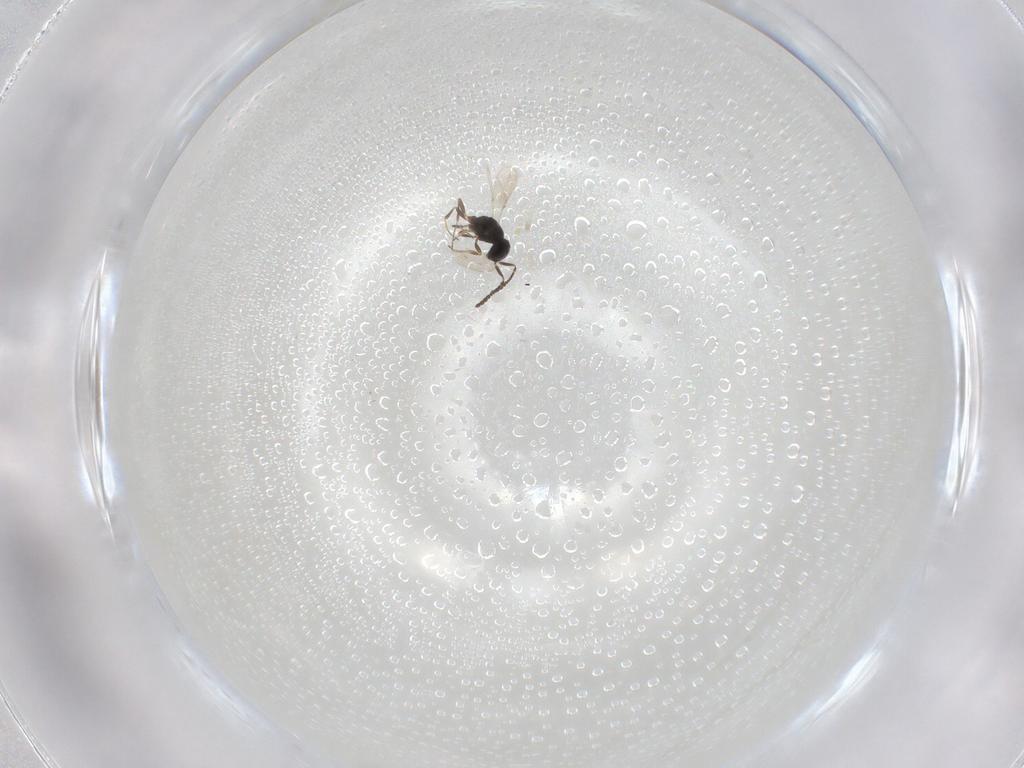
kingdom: Animalia
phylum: Arthropoda
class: Insecta
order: Hymenoptera
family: Scelionidae
